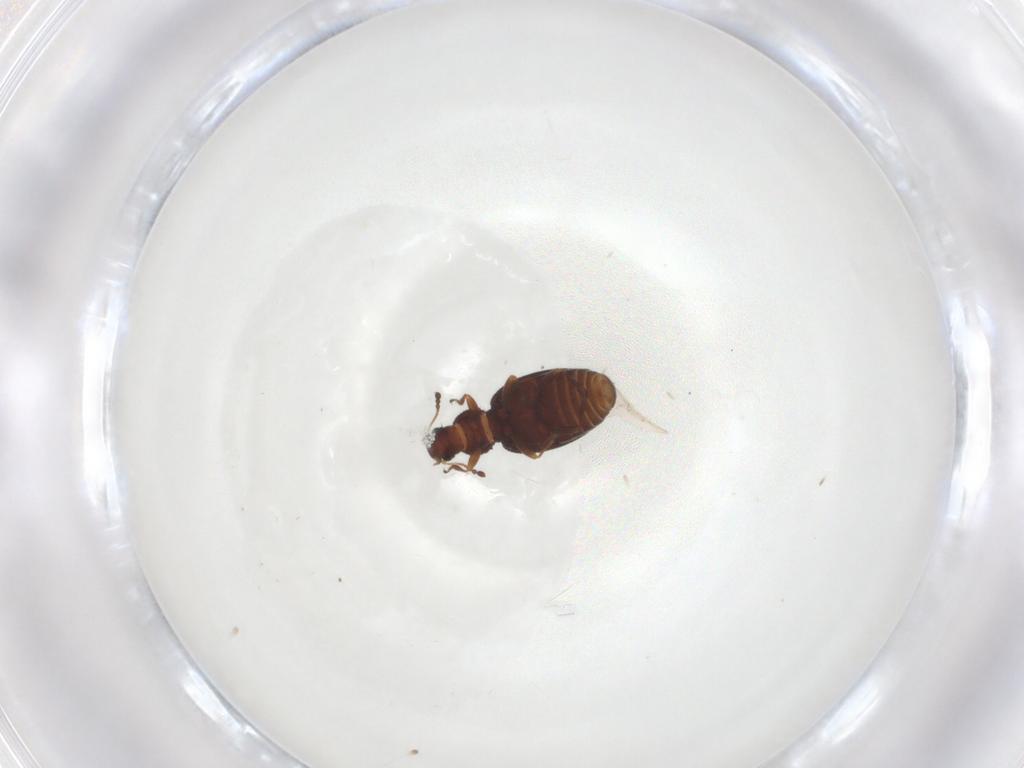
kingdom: Animalia
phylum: Arthropoda
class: Insecta
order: Coleoptera
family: Latridiidae
